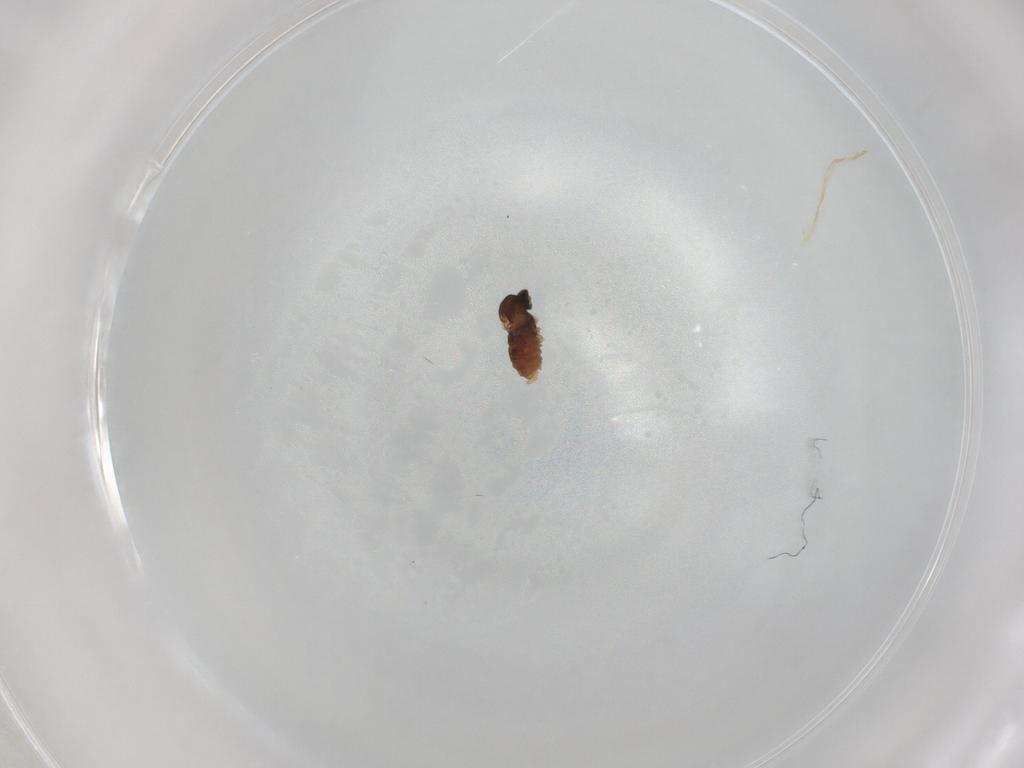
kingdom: Animalia
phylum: Arthropoda
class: Insecta
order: Diptera
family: Cecidomyiidae
